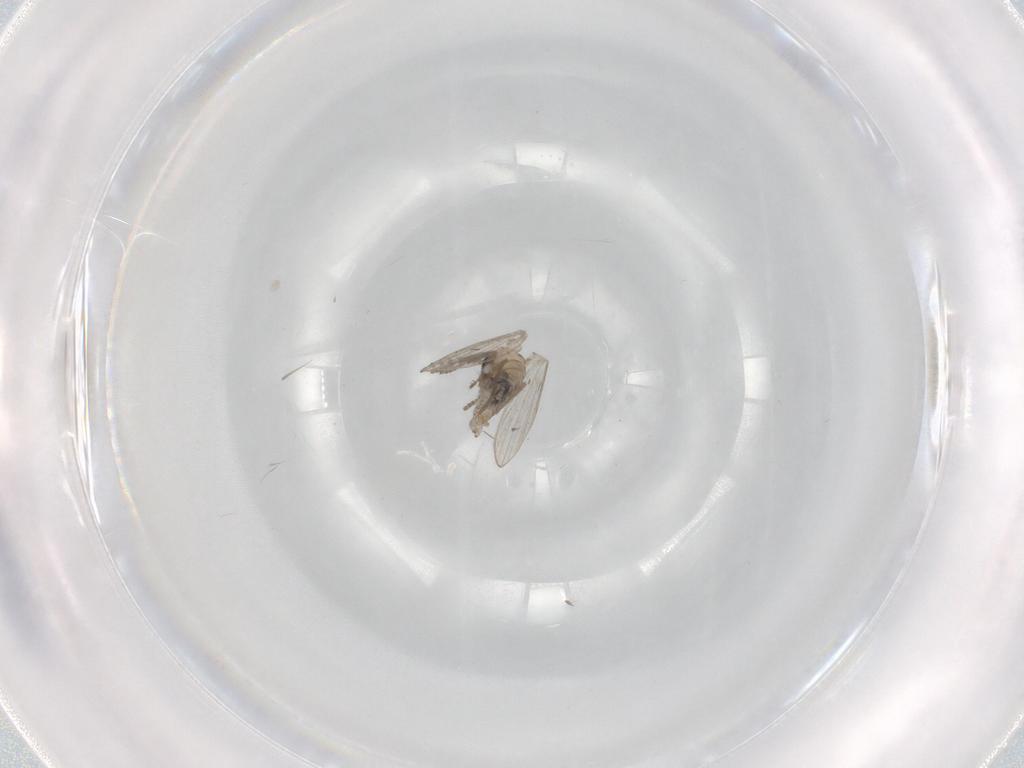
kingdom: Animalia
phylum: Arthropoda
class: Insecta
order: Diptera
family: Psychodidae
